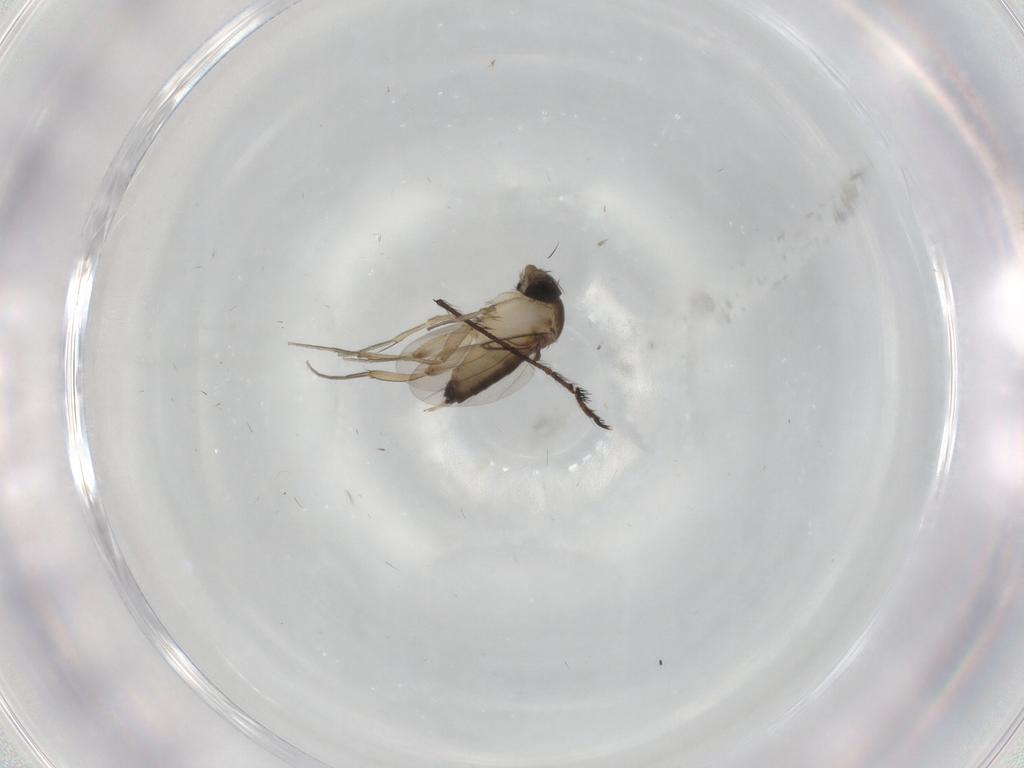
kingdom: Animalia
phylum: Arthropoda
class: Insecta
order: Diptera
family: Phoridae
